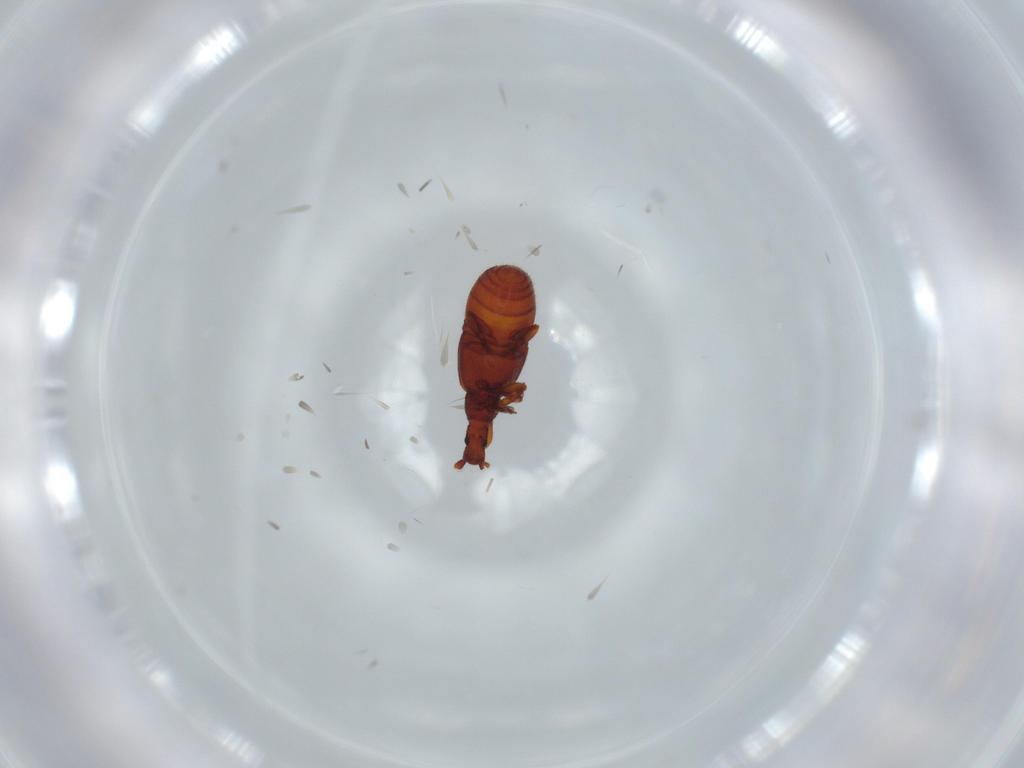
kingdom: Animalia
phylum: Arthropoda
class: Insecta
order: Coleoptera
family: Staphylinidae
